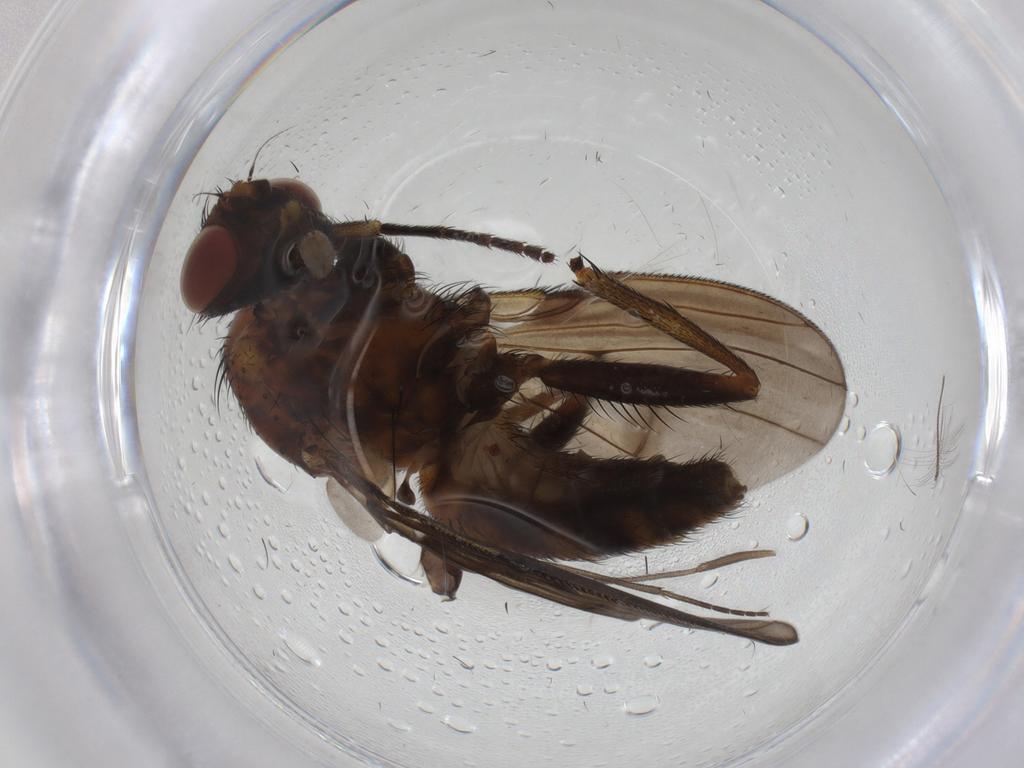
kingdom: Animalia
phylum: Arthropoda
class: Insecta
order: Diptera
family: Muscidae
